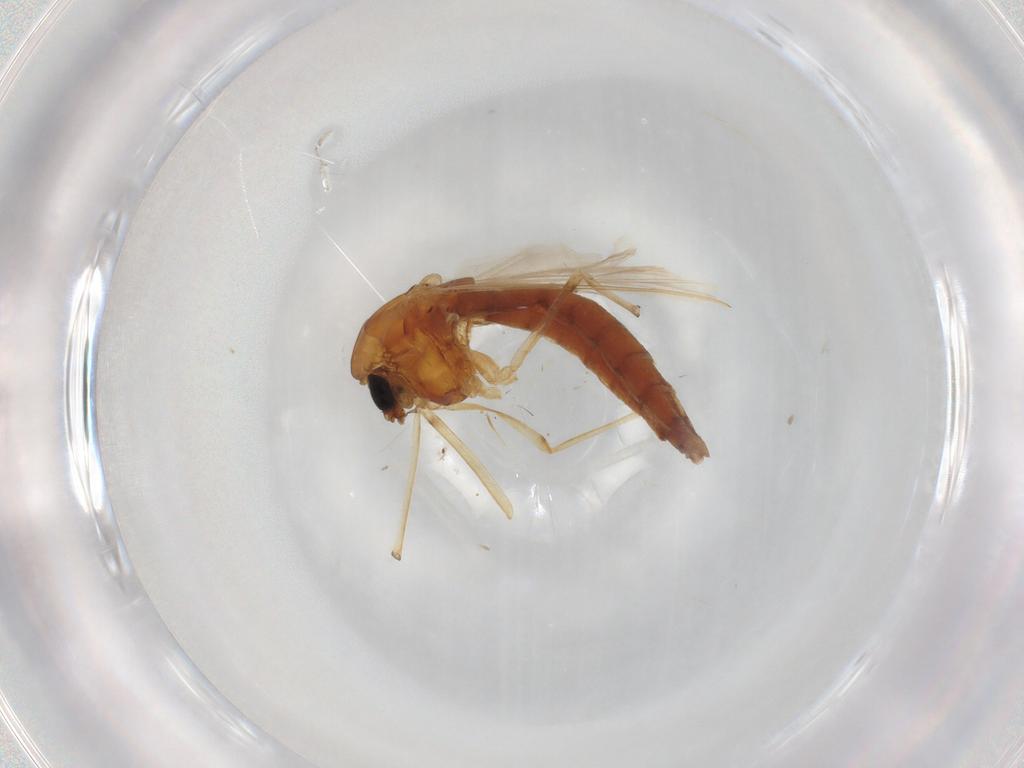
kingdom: Animalia
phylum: Arthropoda
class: Insecta
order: Diptera
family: Chironomidae
